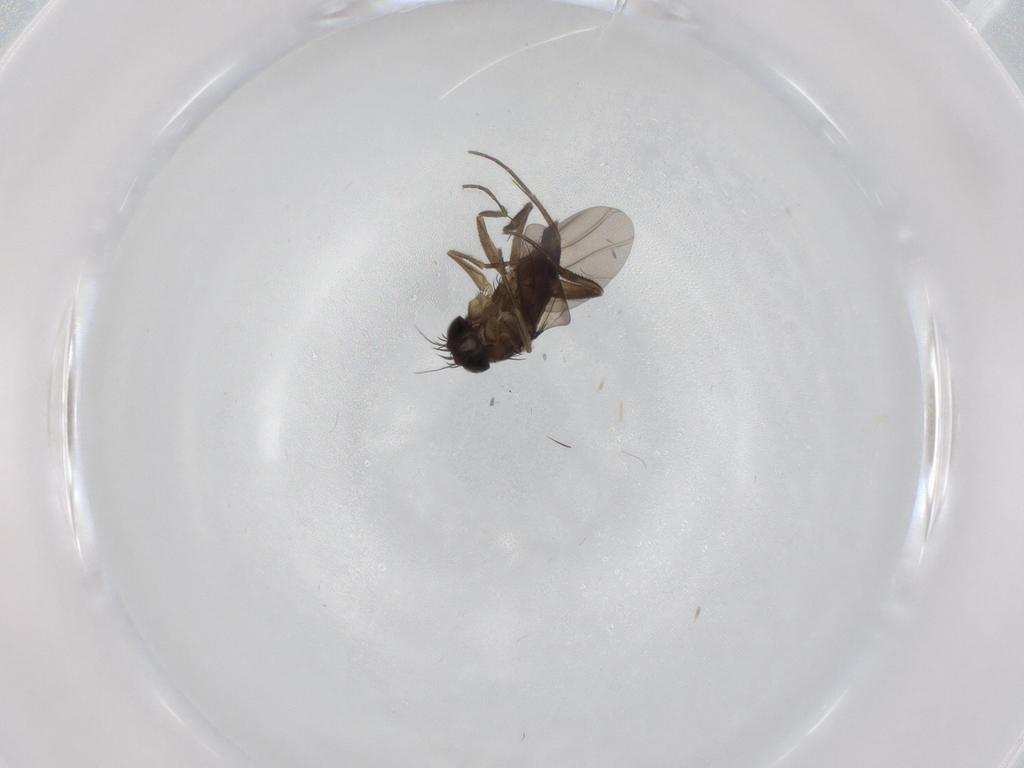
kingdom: Animalia
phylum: Arthropoda
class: Insecta
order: Diptera
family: Phoridae
